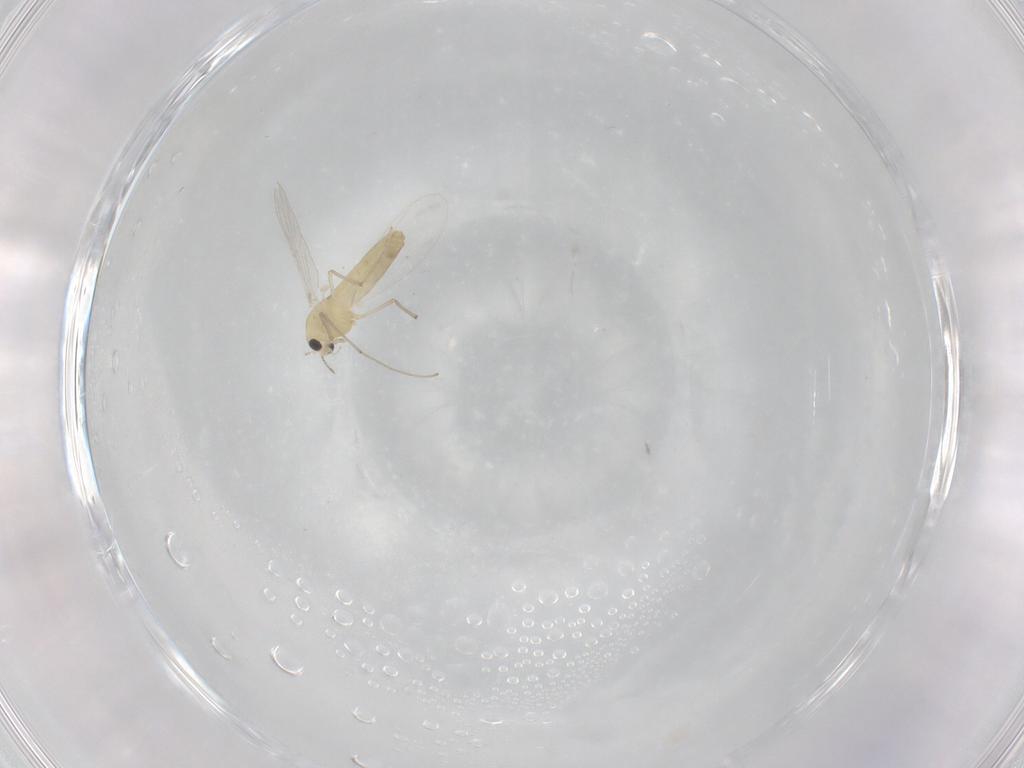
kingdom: Animalia
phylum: Arthropoda
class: Insecta
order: Diptera
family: Chironomidae
